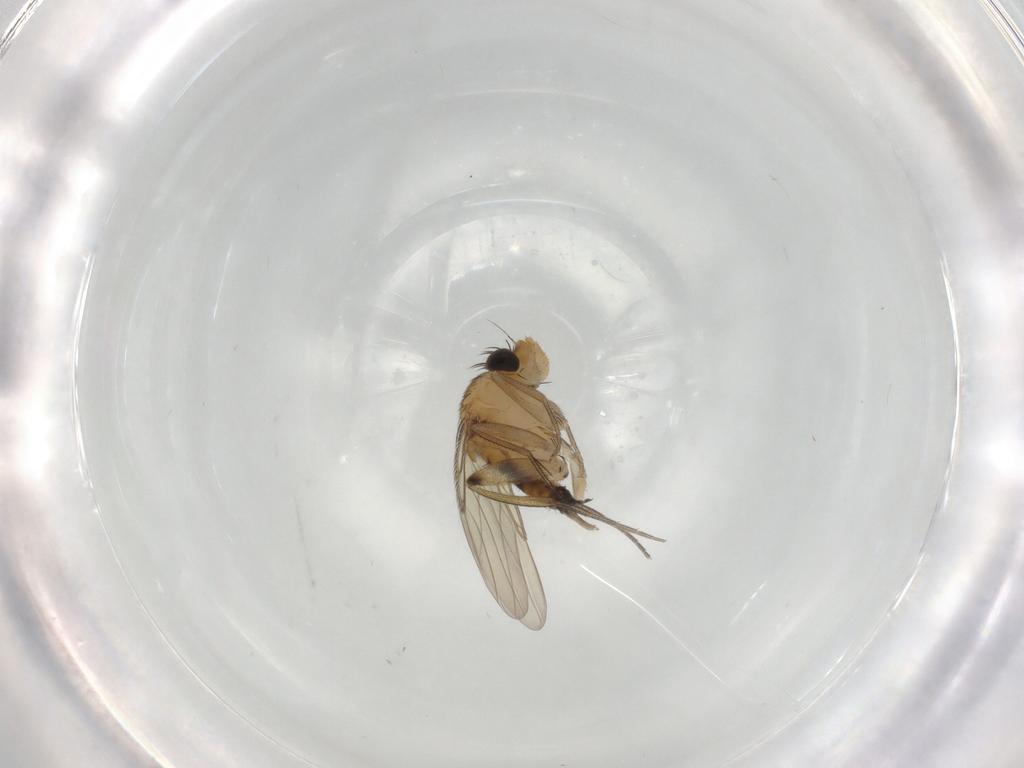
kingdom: Animalia
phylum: Arthropoda
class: Insecta
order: Diptera
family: Phoridae
